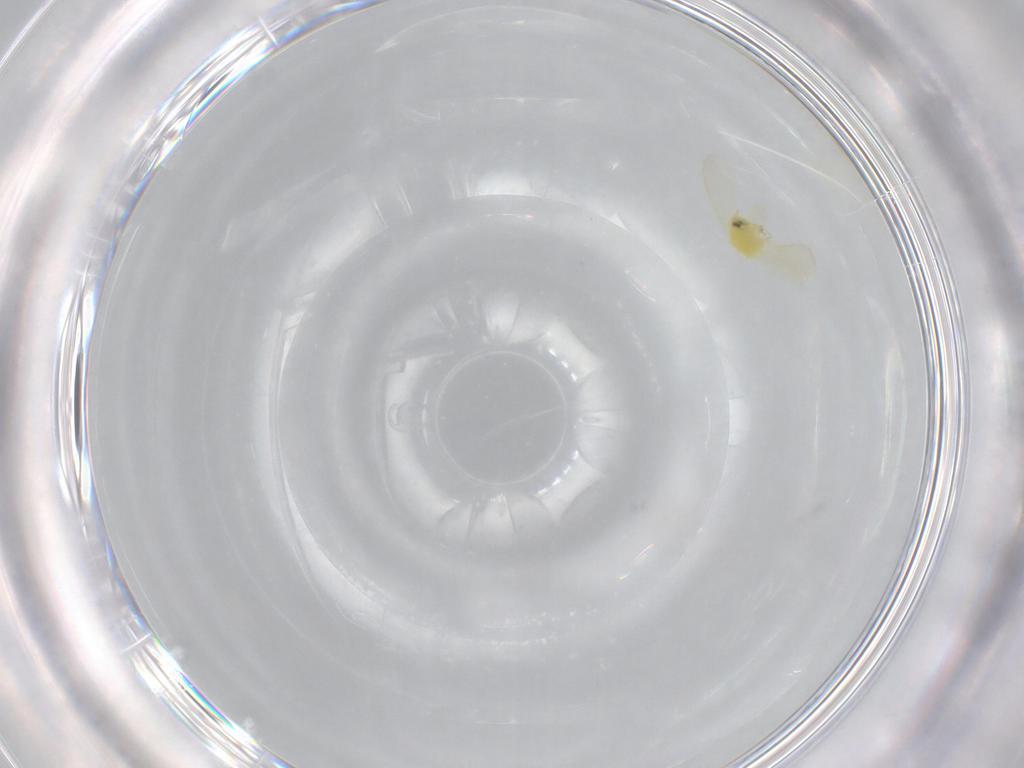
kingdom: Animalia
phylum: Arthropoda
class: Insecta
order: Hemiptera
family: Aleyrodidae
